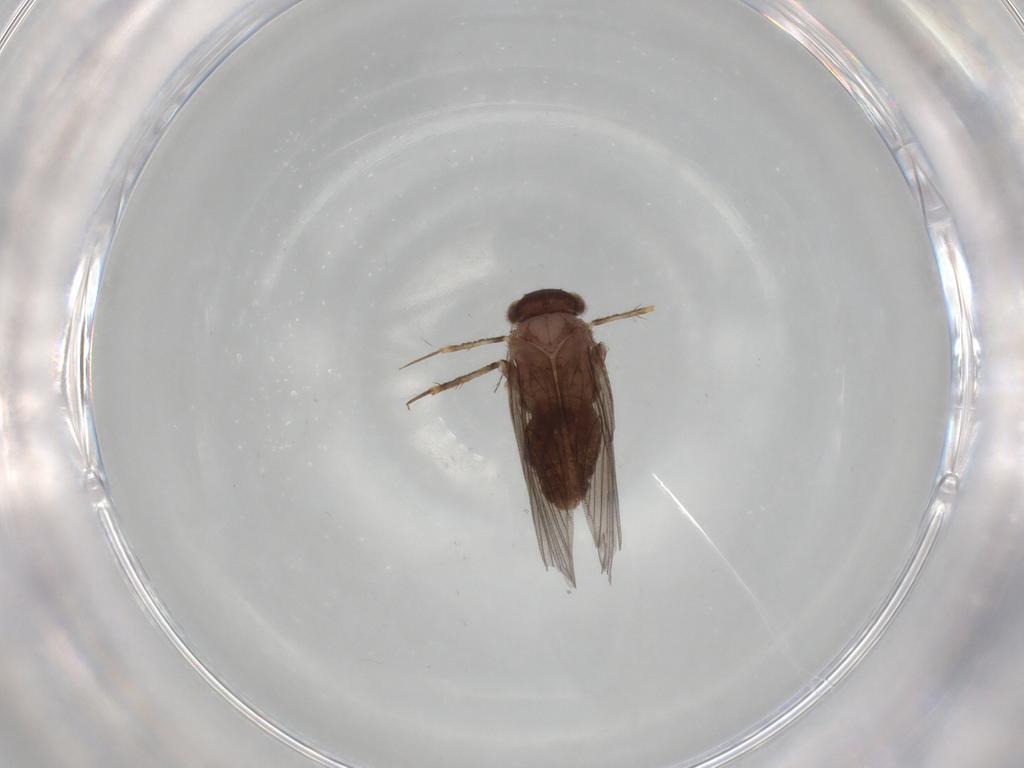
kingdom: Animalia
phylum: Arthropoda
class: Insecta
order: Psocodea
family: Lepidopsocidae
